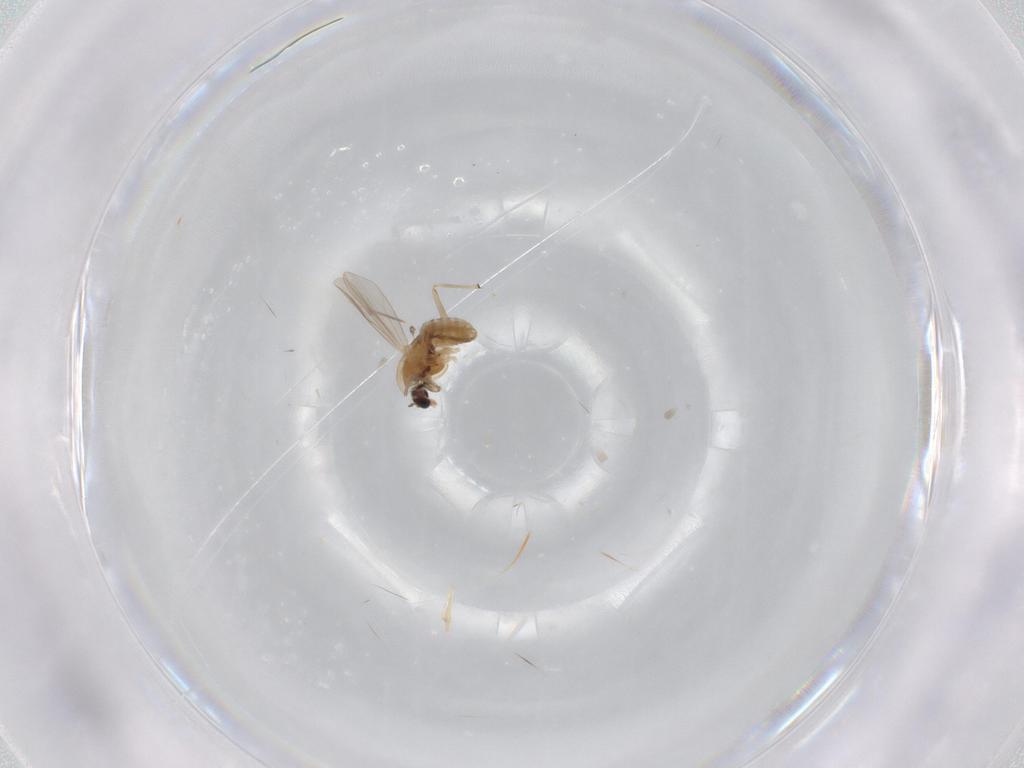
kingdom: Animalia
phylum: Arthropoda
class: Insecta
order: Diptera
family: Chironomidae
